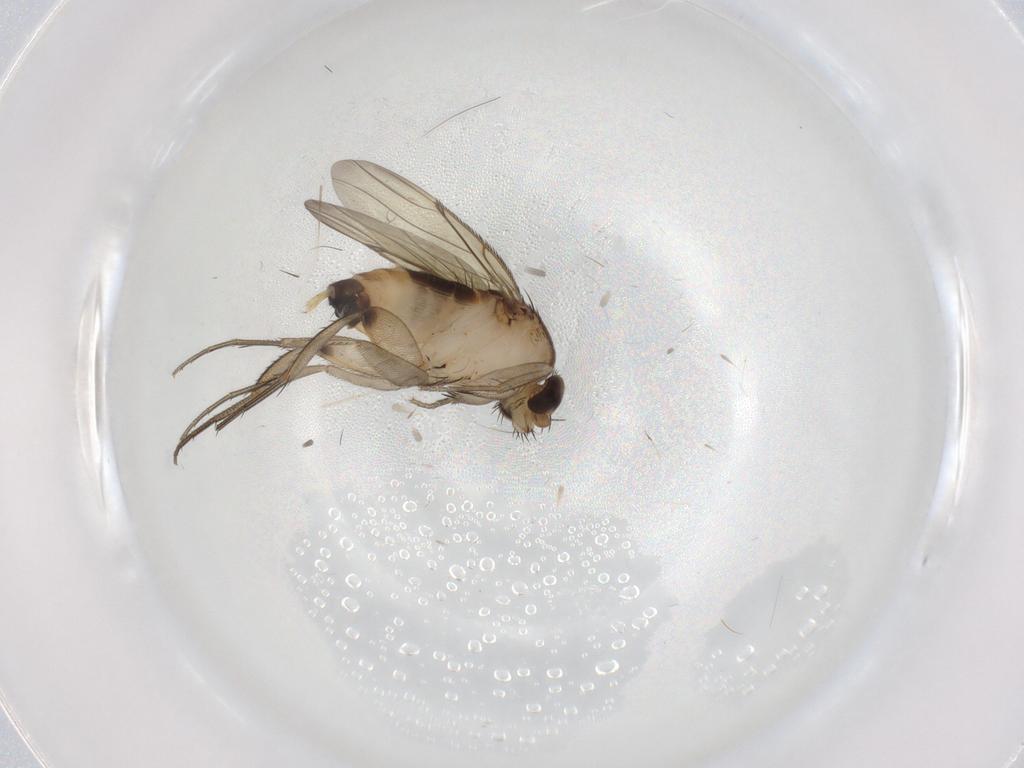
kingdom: Animalia
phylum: Arthropoda
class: Insecta
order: Diptera
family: Phoridae
